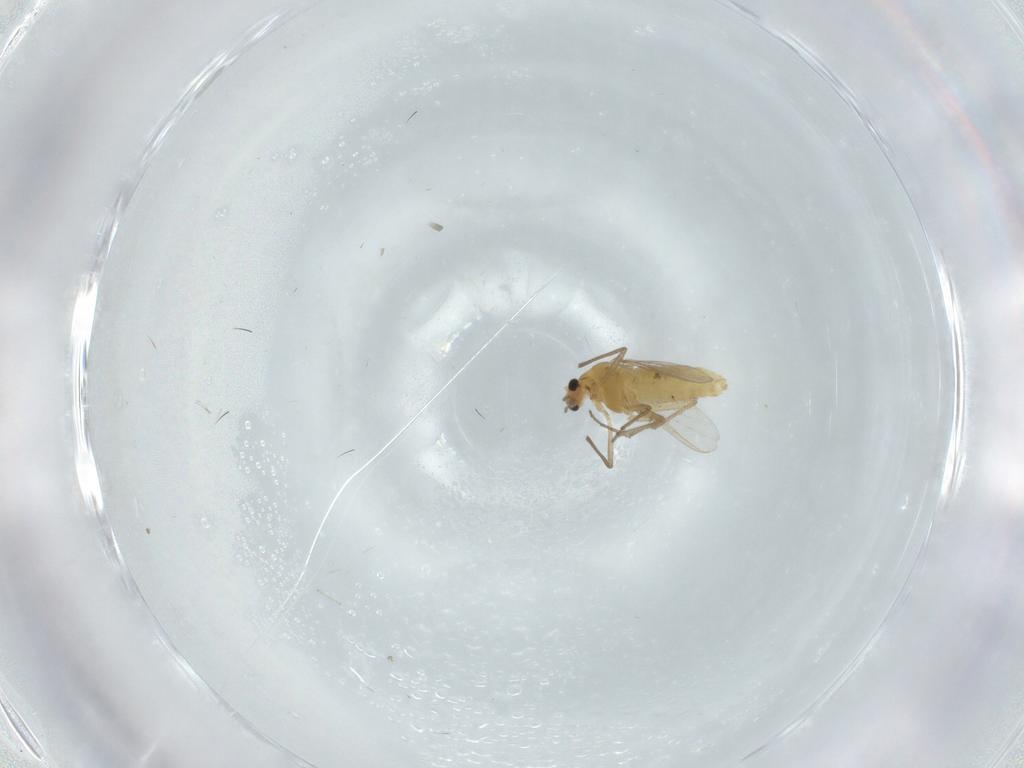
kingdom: Animalia
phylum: Arthropoda
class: Insecta
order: Diptera
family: Chironomidae
